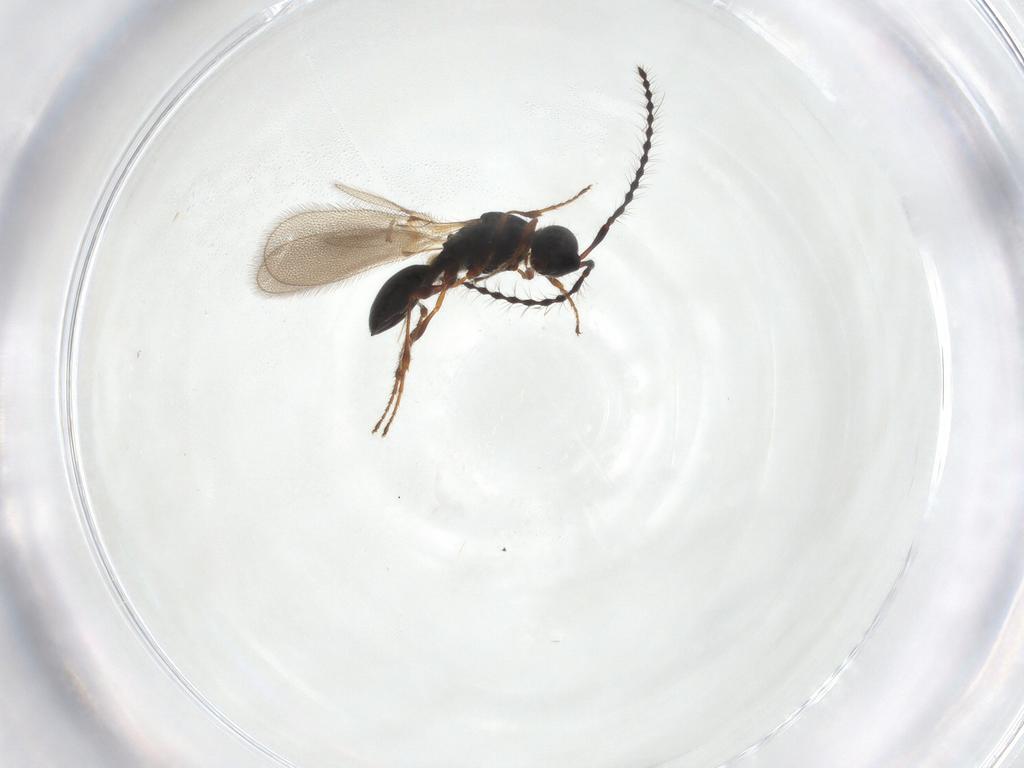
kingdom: Animalia
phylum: Arthropoda
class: Insecta
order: Hymenoptera
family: Diapriidae
